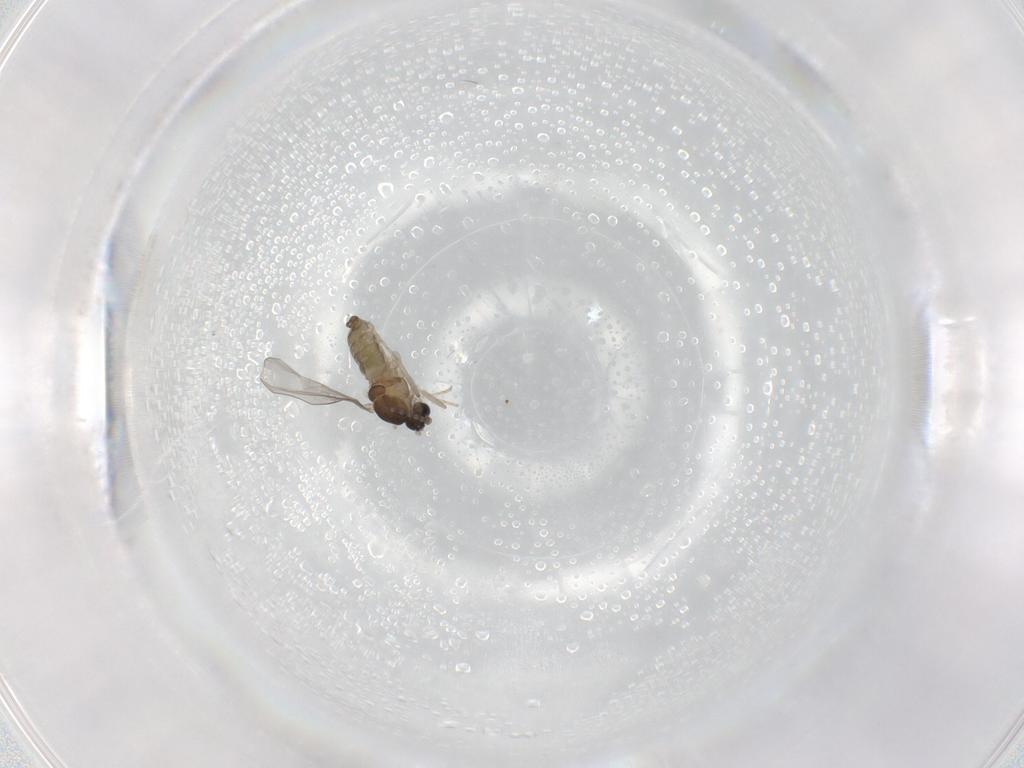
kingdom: Animalia
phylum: Arthropoda
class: Insecta
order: Diptera
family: Cecidomyiidae
